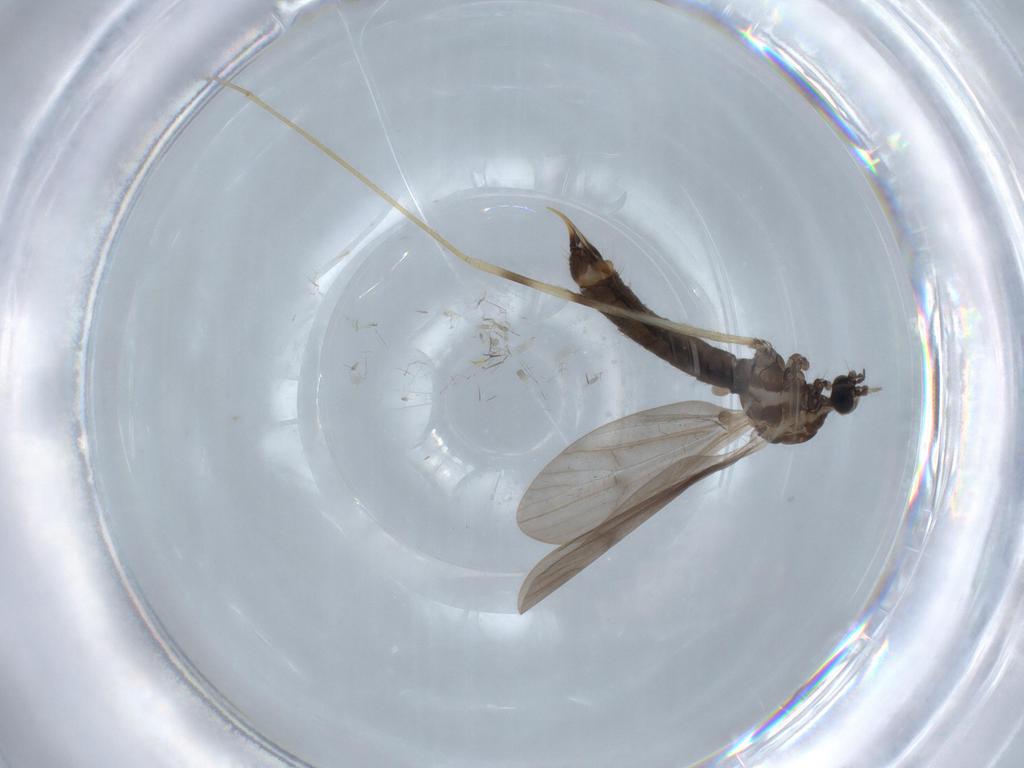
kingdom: Animalia
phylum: Arthropoda
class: Insecta
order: Diptera
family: Limoniidae
